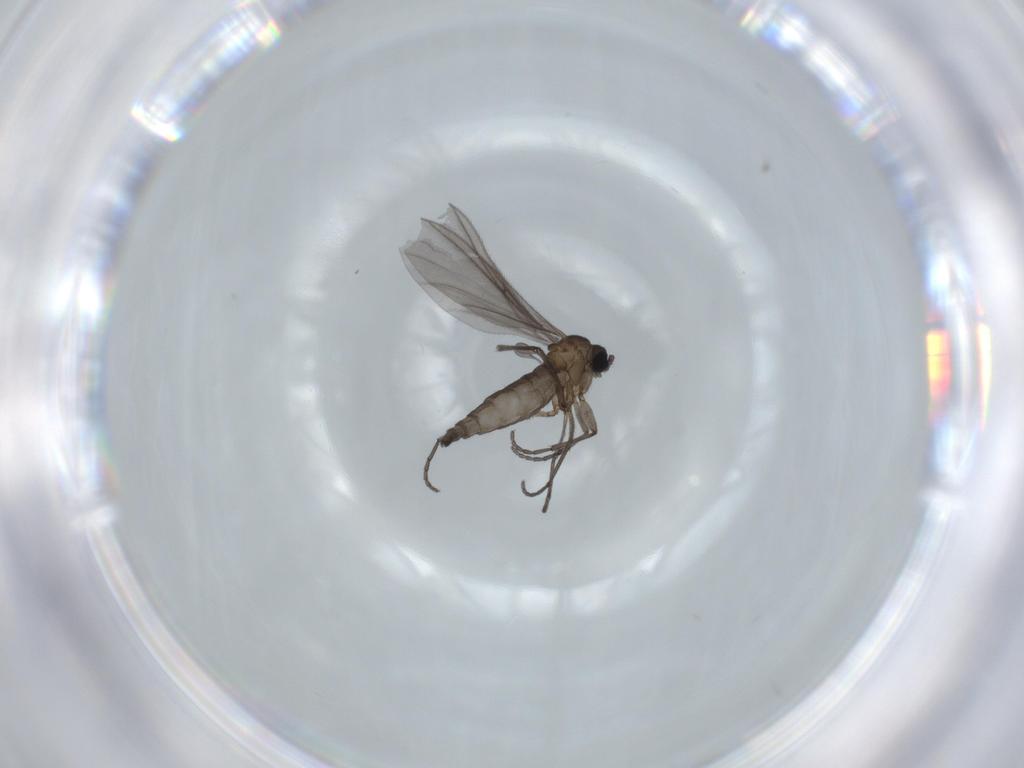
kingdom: Animalia
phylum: Arthropoda
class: Insecta
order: Diptera
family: Sciaridae
